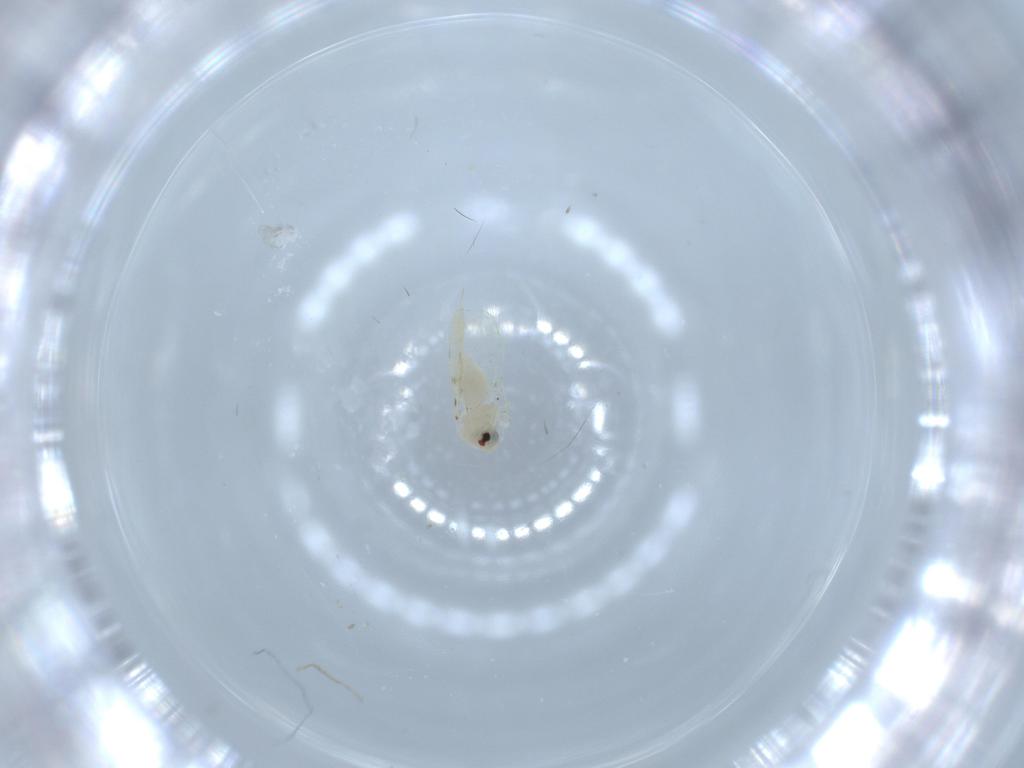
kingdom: Animalia
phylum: Arthropoda
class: Insecta
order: Hemiptera
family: Aleyrodidae
